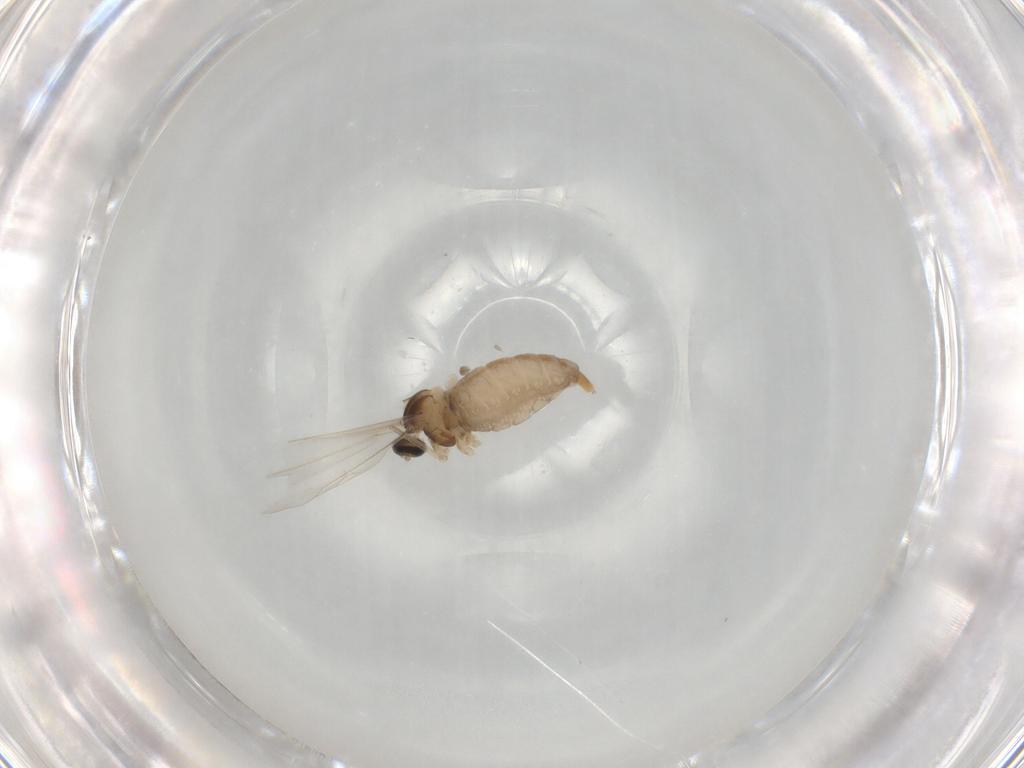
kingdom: Animalia
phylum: Arthropoda
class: Insecta
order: Diptera
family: Cecidomyiidae
